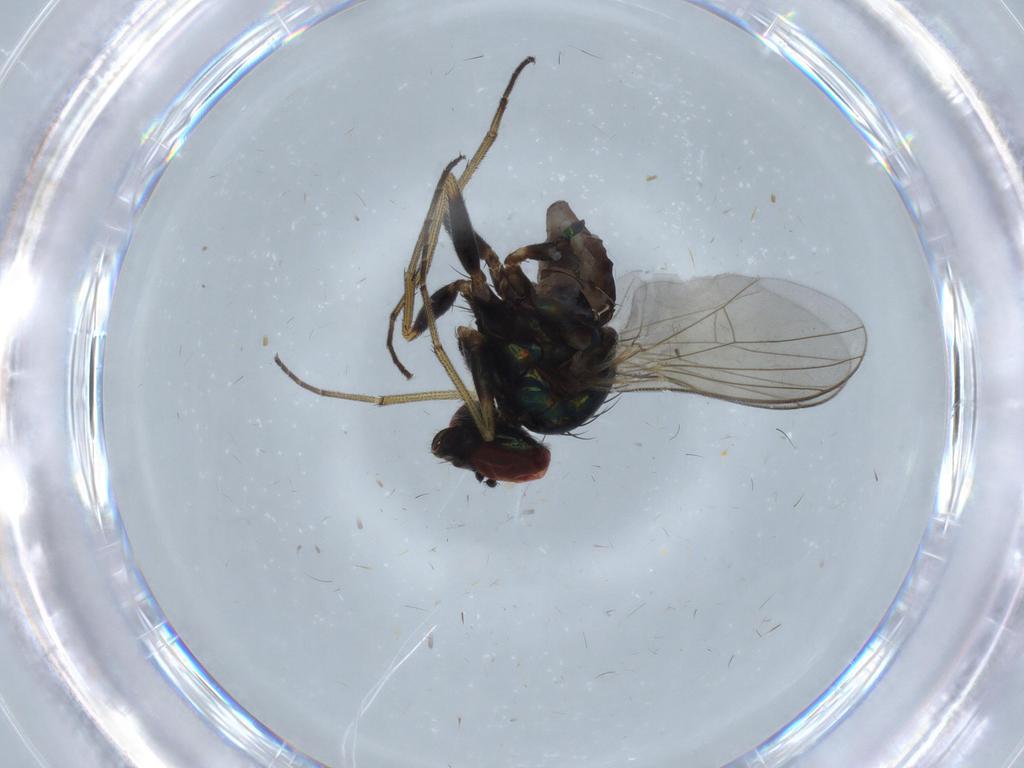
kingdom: Animalia
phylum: Arthropoda
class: Insecta
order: Diptera
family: Dolichopodidae
